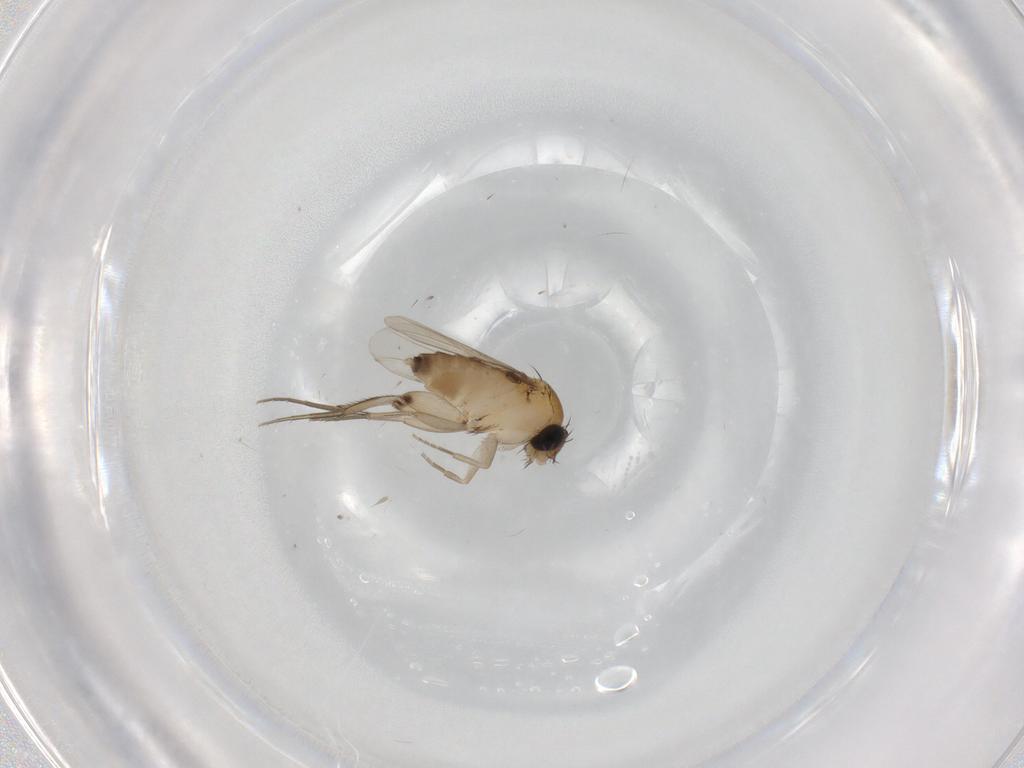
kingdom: Animalia
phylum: Arthropoda
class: Insecta
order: Diptera
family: Phoridae
